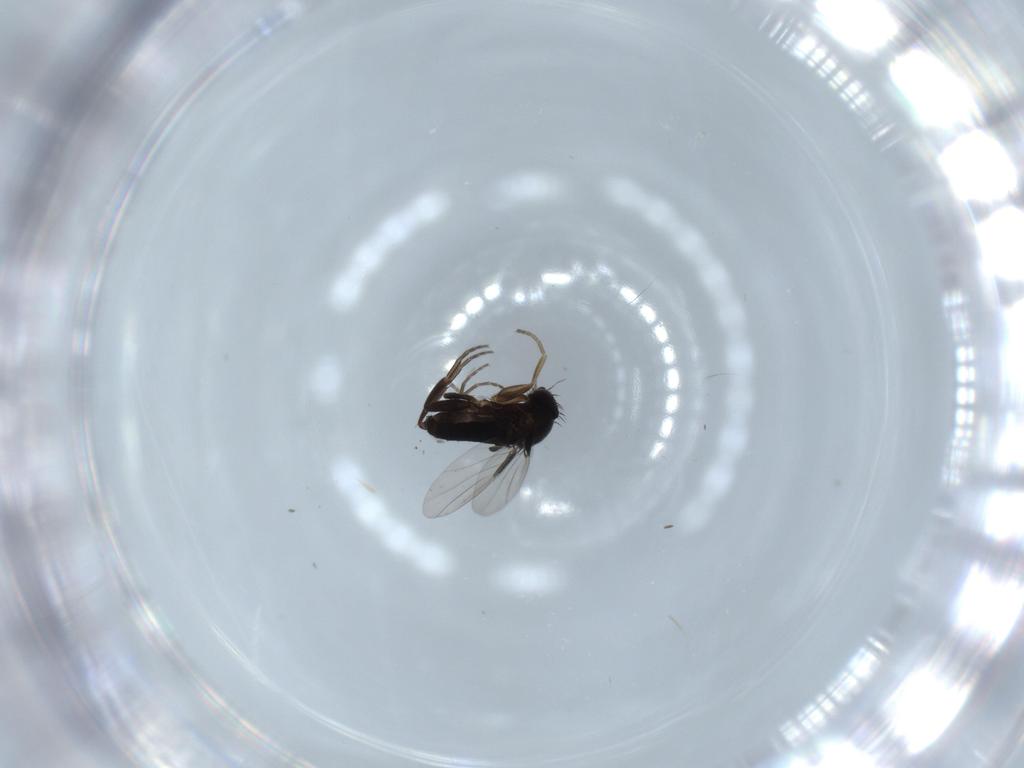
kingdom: Animalia
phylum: Arthropoda
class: Insecta
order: Diptera
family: Phoridae
